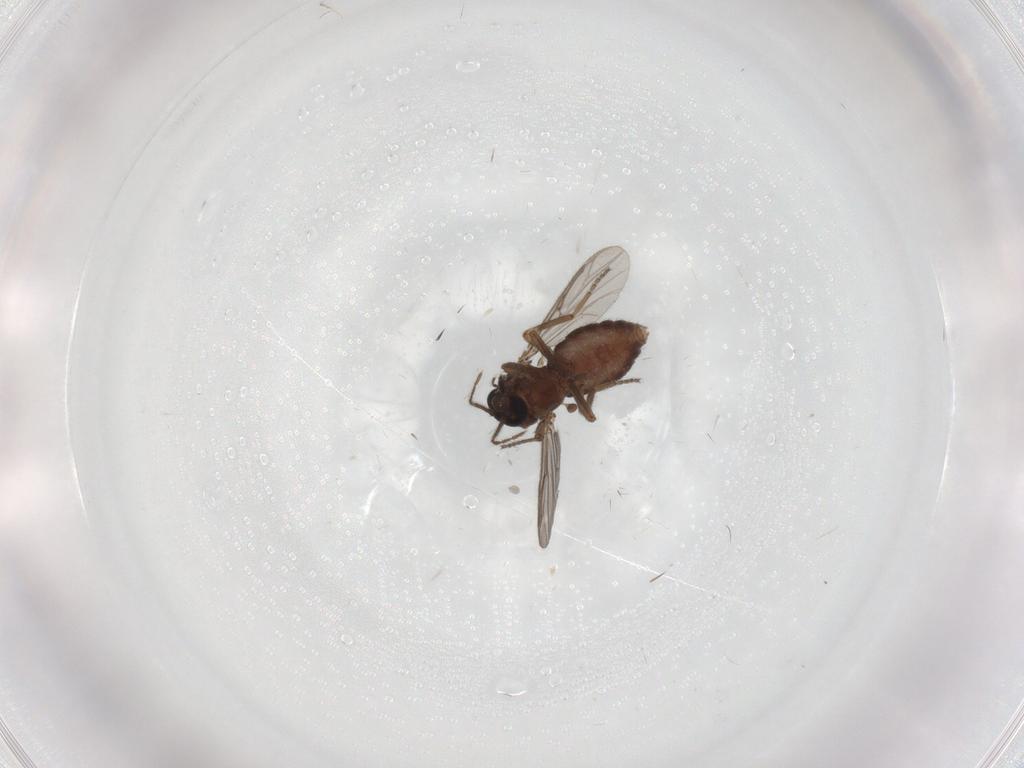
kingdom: Animalia
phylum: Arthropoda
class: Insecta
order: Diptera
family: Ceratopogonidae
